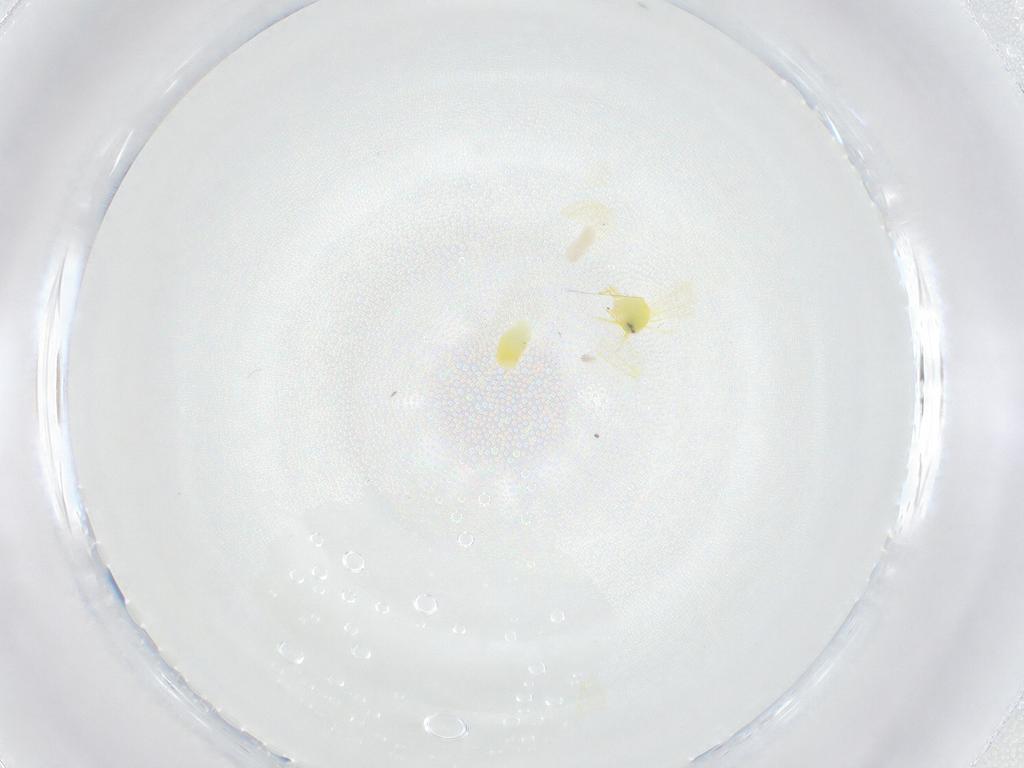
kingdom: Animalia
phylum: Arthropoda
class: Insecta
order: Hemiptera
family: Aleyrodidae
